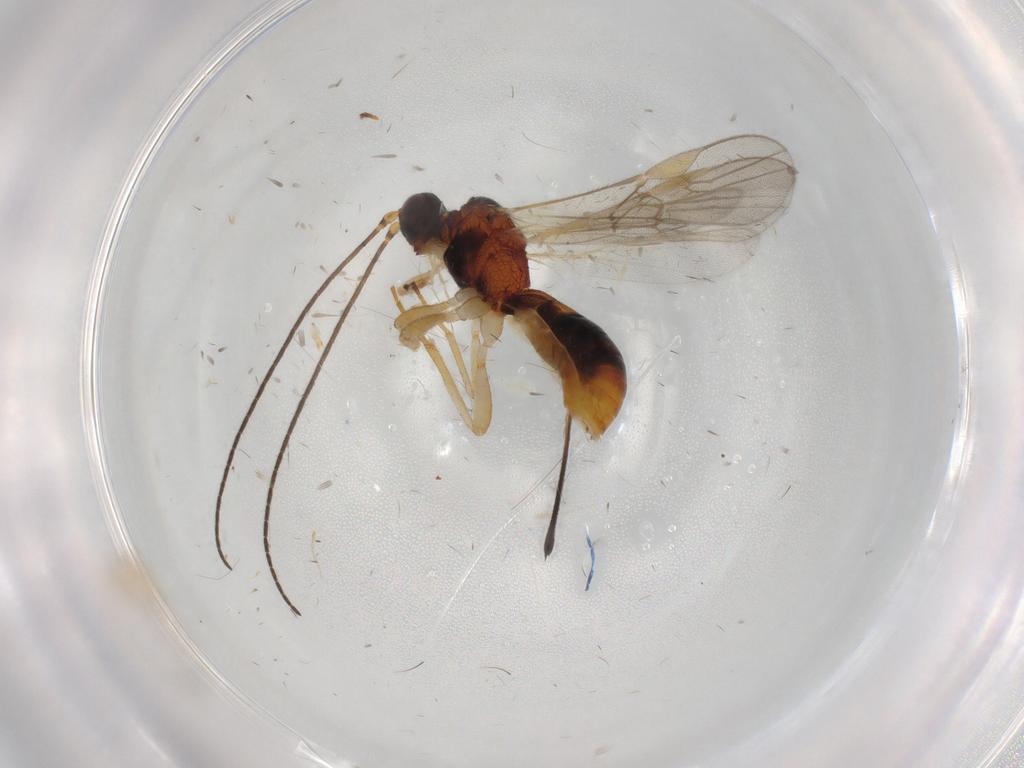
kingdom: Animalia
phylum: Arthropoda
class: Insecta
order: Hymenoptera
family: Braconidae
